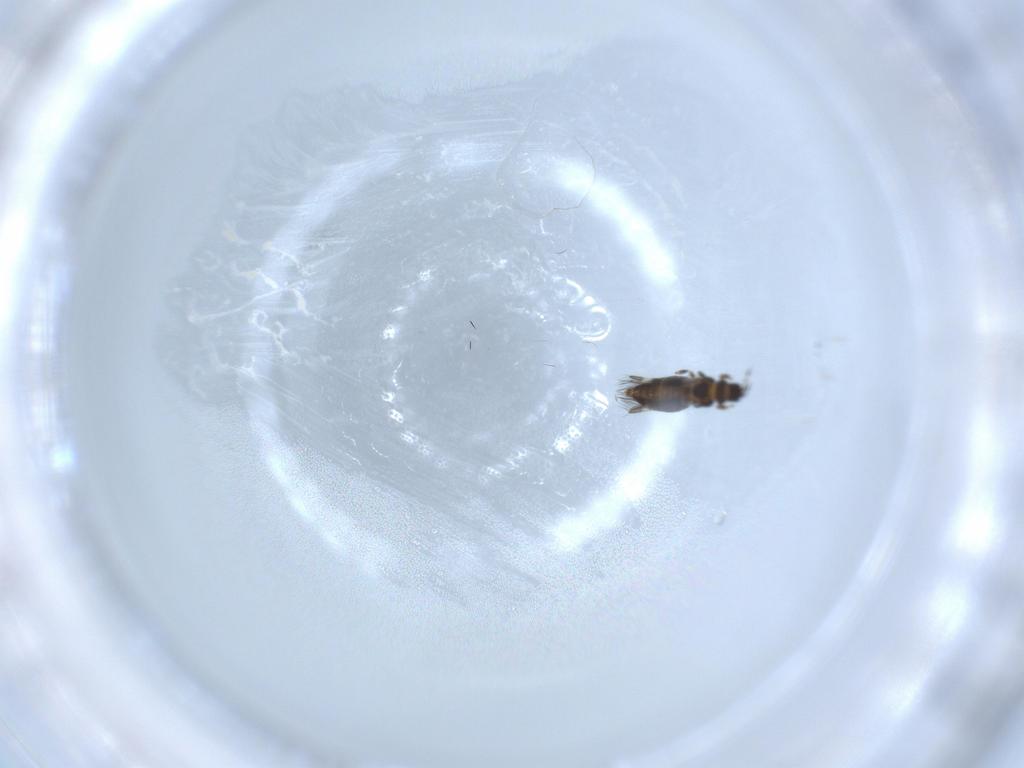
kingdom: Animalia
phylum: Arthropoda
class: Insecta
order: Thysanoptera
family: Thripidae
